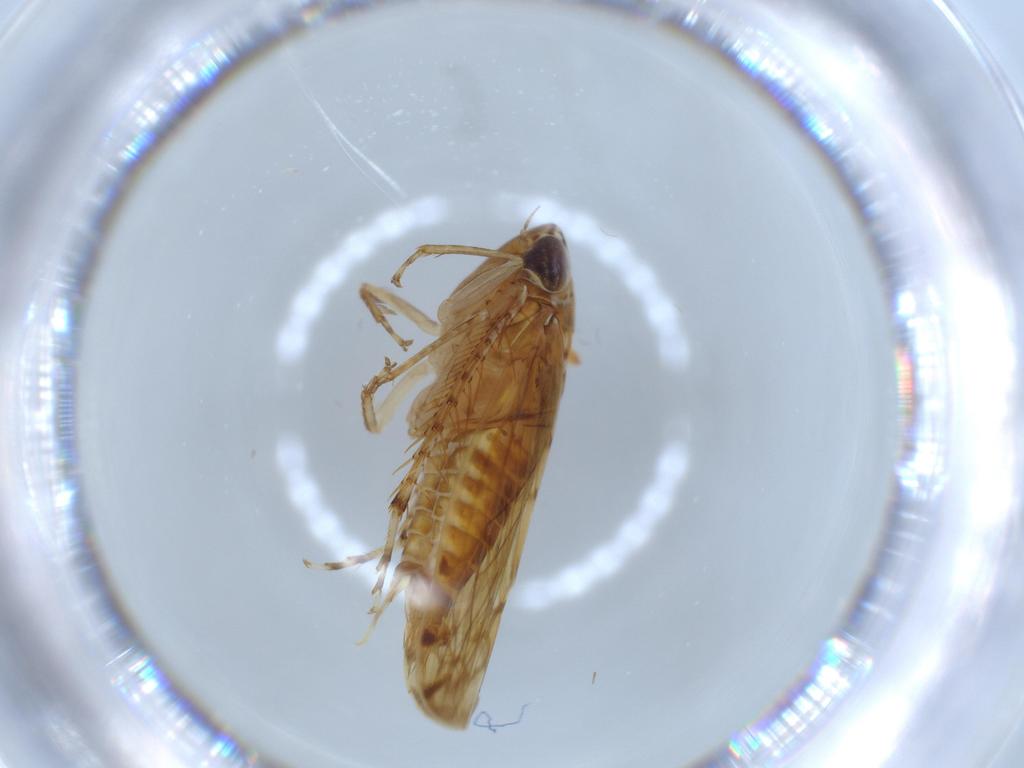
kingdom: Animalia
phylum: Arthropoda
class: Insecta
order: Hemiptera
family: Cicadellidae
